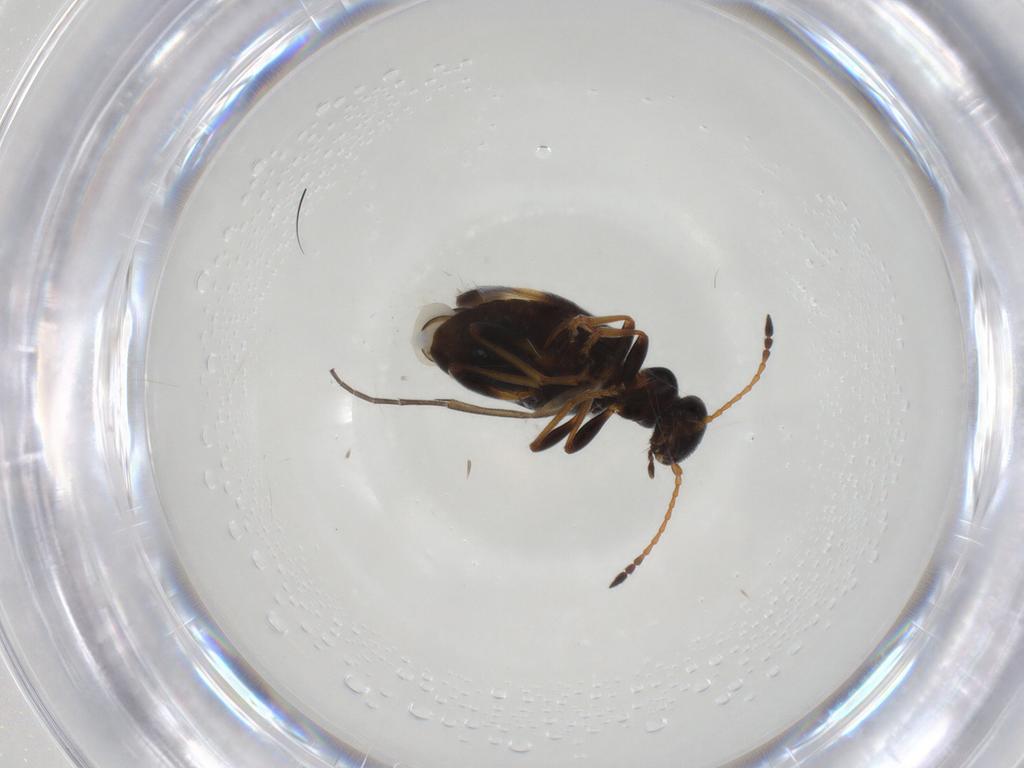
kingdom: Animalia
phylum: Arthropoda
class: Insecta
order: Coleoptera
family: Anthicidae
